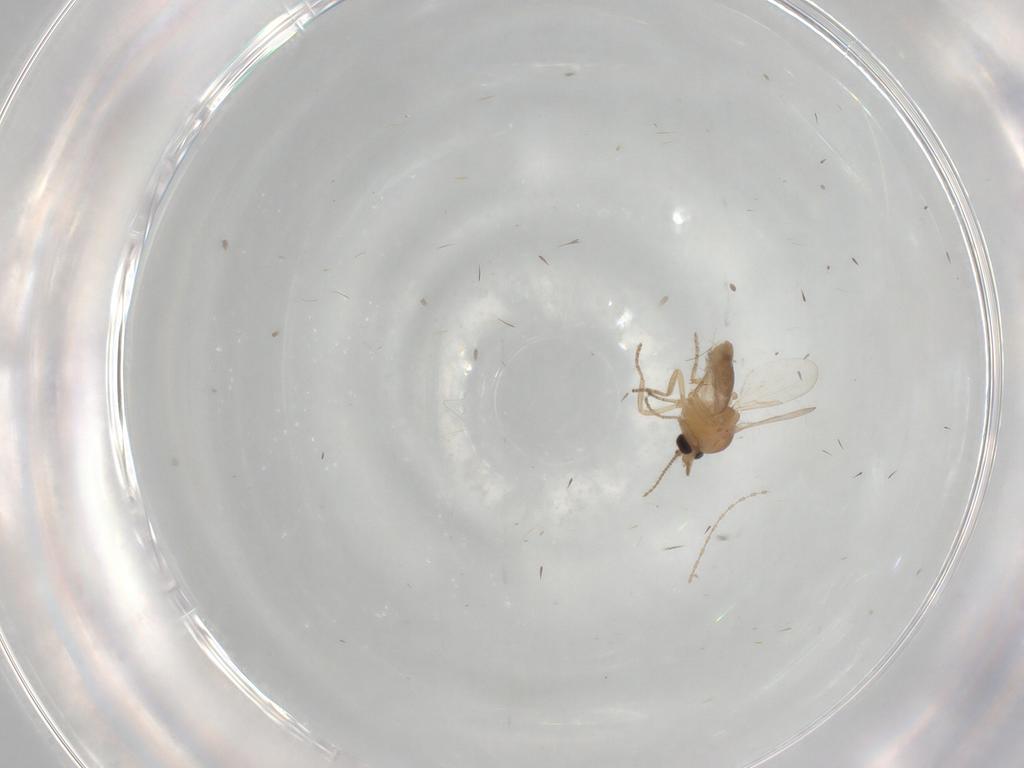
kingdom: Animalia
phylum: Arthropoda
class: Insecta
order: Diptera
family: Ceratopogonidae
